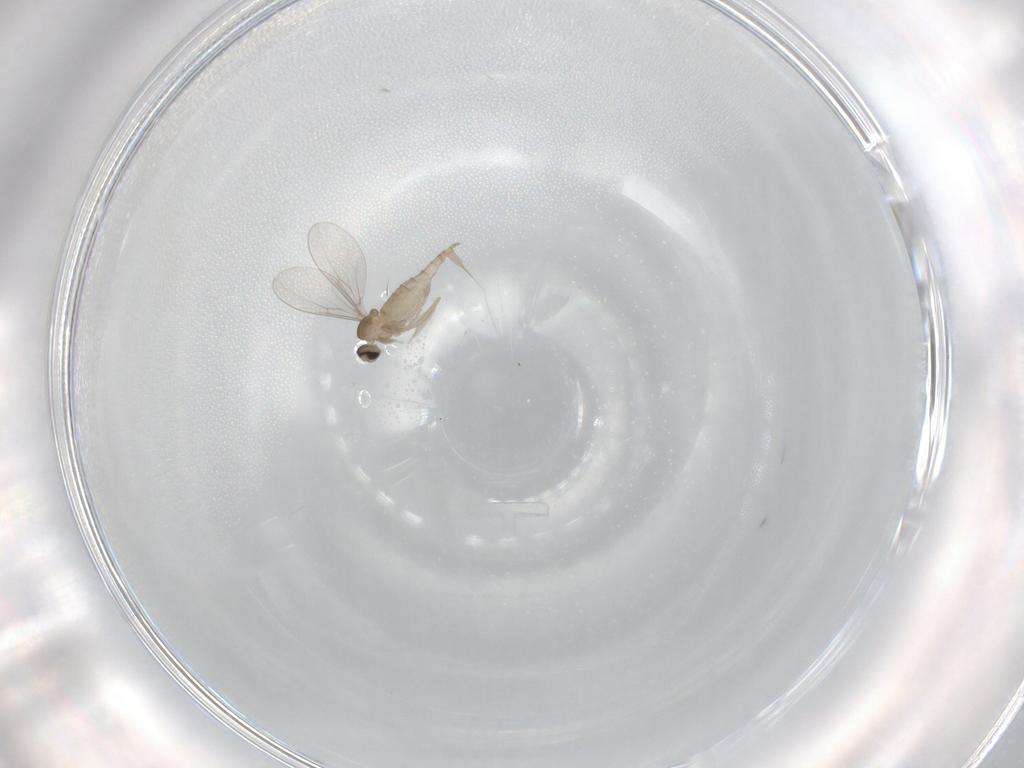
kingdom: Animalia
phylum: Arthropoda
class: Insecta
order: Diptera
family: Cecidomyiidae
